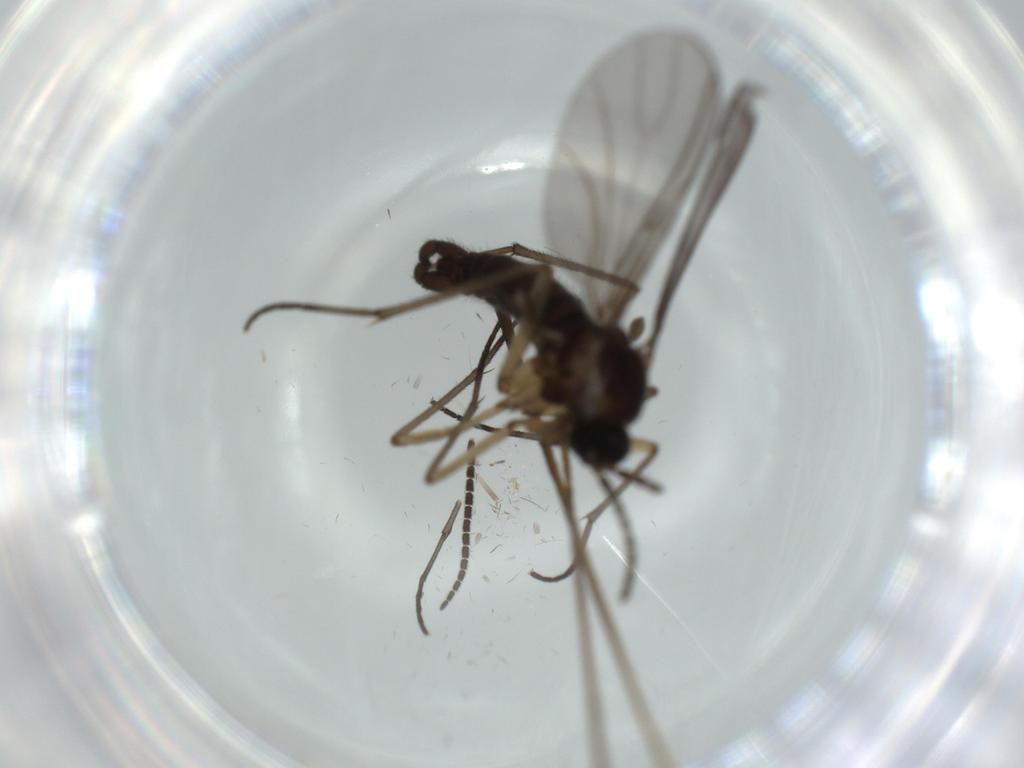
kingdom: Animalia
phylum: Arthropoda
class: Insecta
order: Diptera
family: Sciaridae
